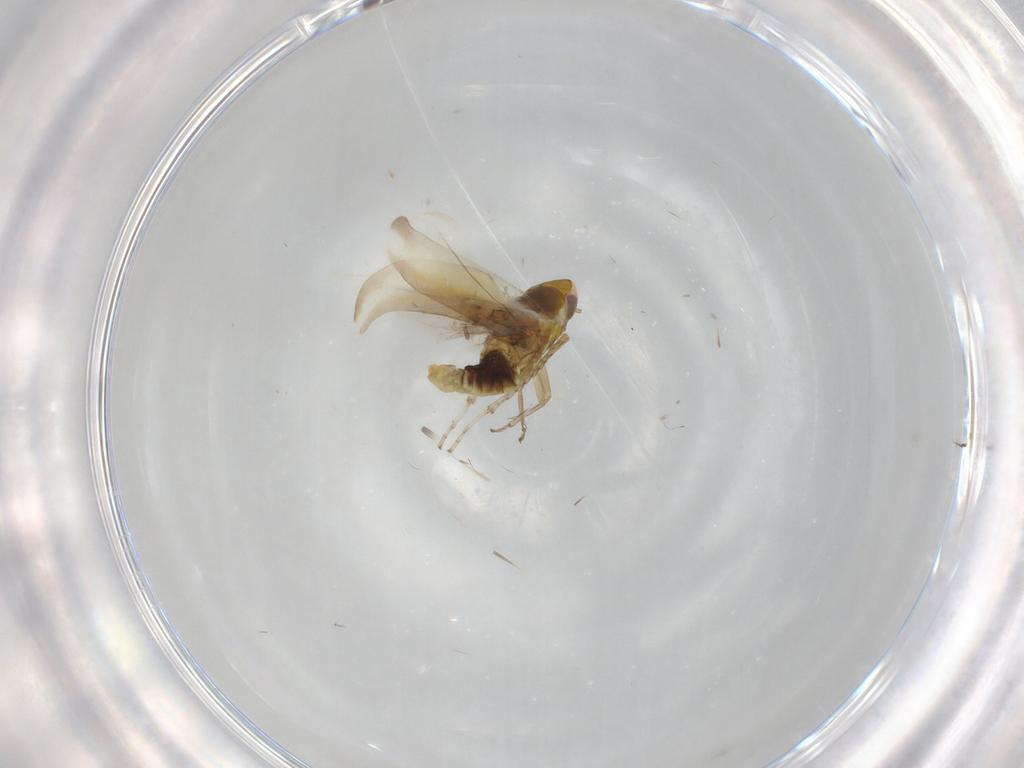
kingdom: Animalia
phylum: Arthropoda
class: Insecta
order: Hemiptera
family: Cicadellidae
